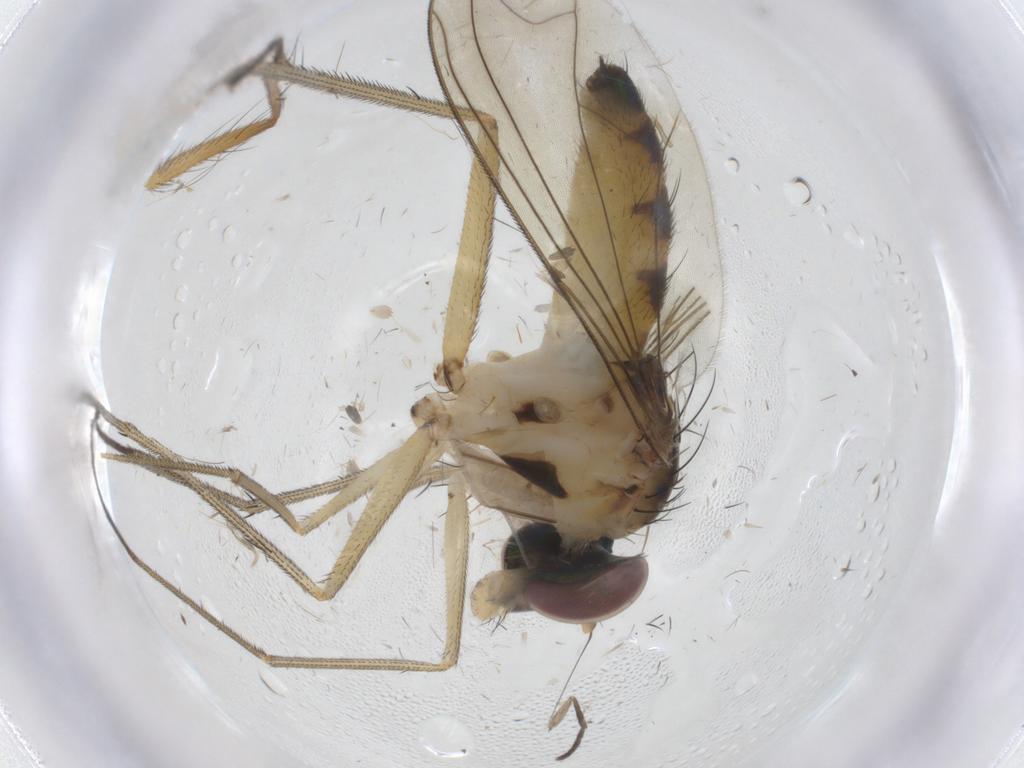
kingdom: Animalia
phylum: Arthropoda
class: Insecta
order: Diptera
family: Dolichopodidae
